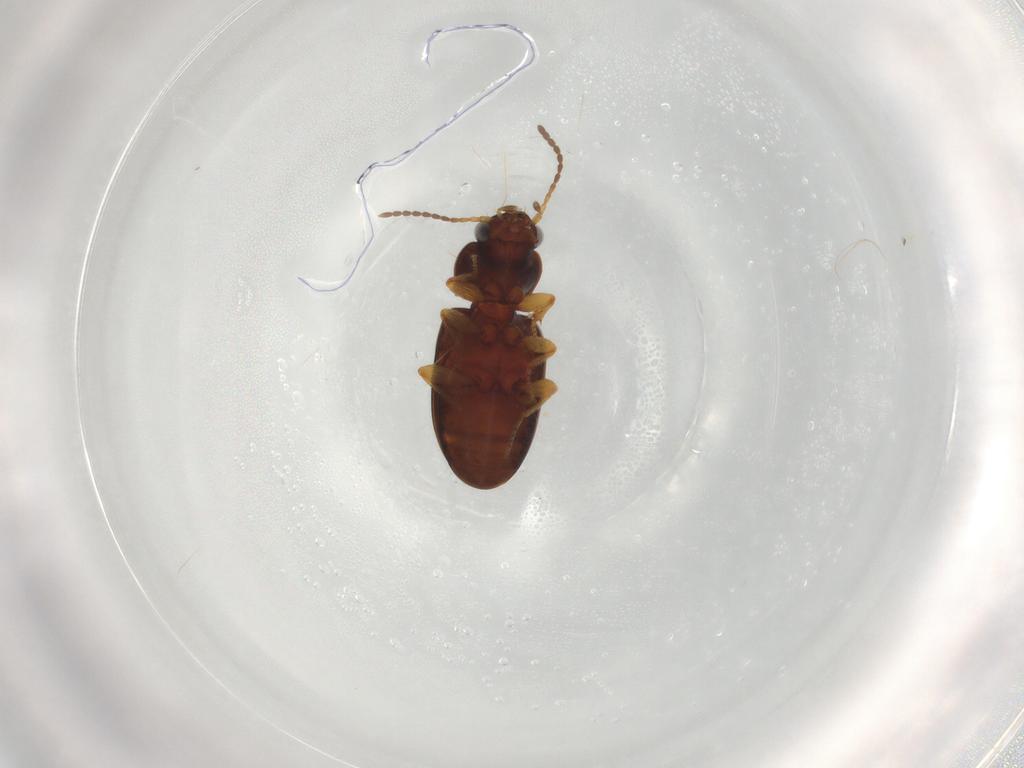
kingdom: Animalia
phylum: Arthropoda
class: Insecta
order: Coleoptera
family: Carabidae
